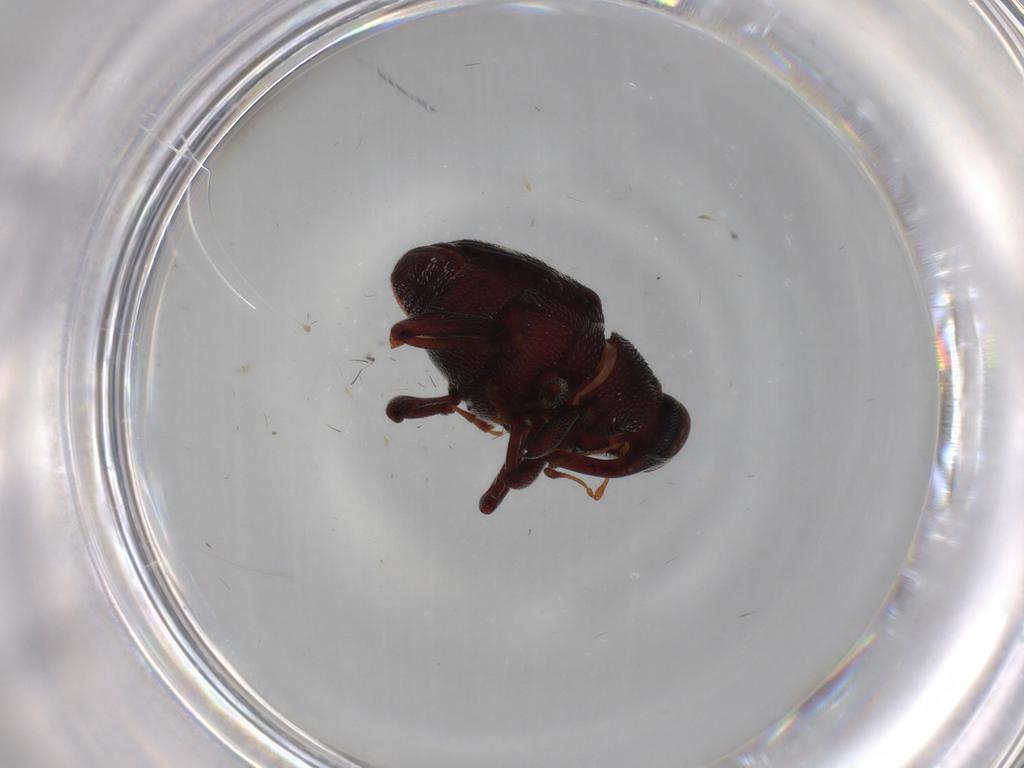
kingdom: Animalia
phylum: Arthropoda
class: Insecta
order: Coleoptera
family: Curculionidae
